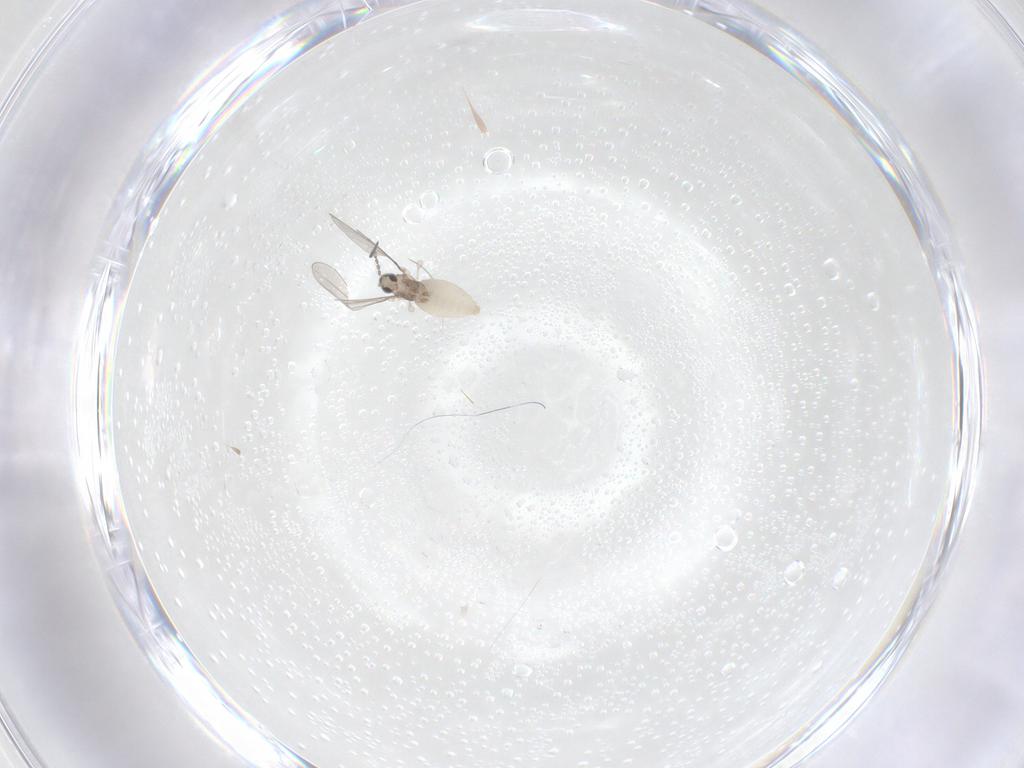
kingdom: Animalia
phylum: Arthropoda
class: Insecta
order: Diptera
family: Cecidomyiidae
